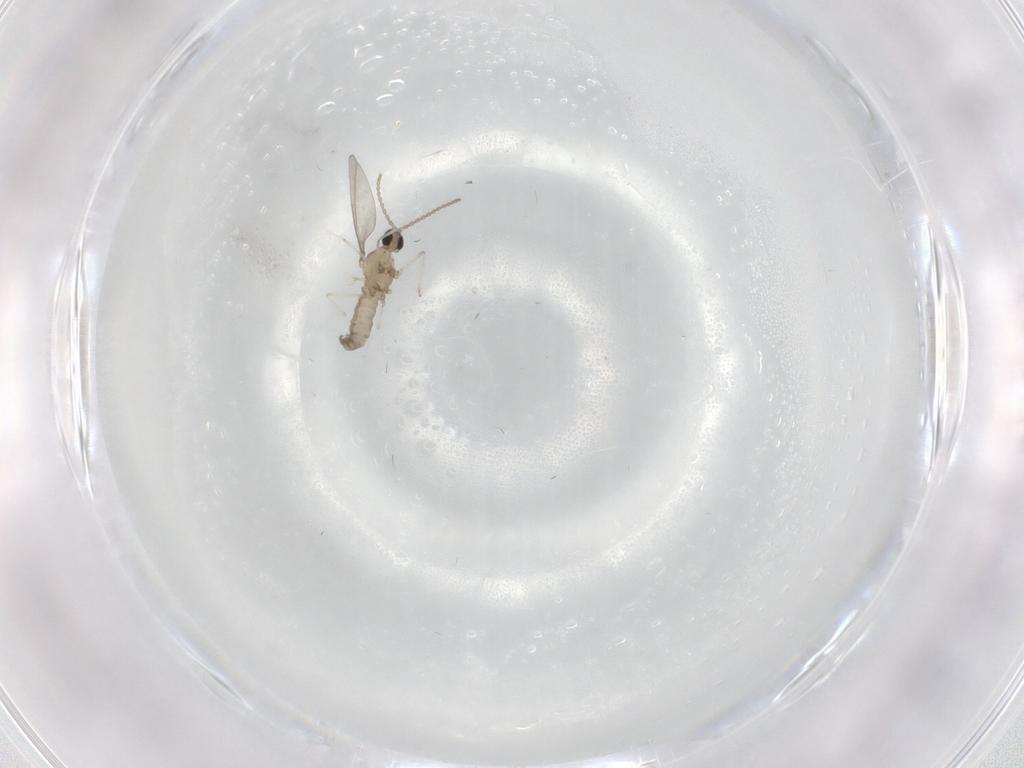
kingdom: Animalia
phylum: Arthropoda
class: Insecta
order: Diptera
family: Cecidomyiidae
